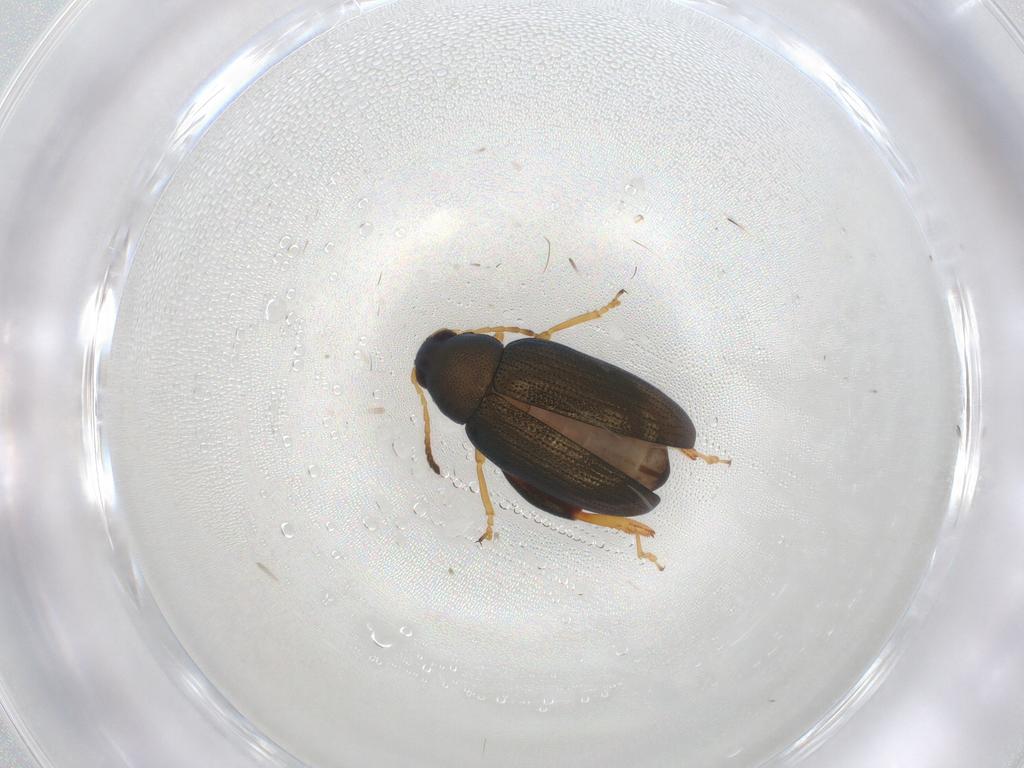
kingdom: Animalia
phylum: Arthropoda
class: Insecta
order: Coleoptera
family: Chrysomelidae
